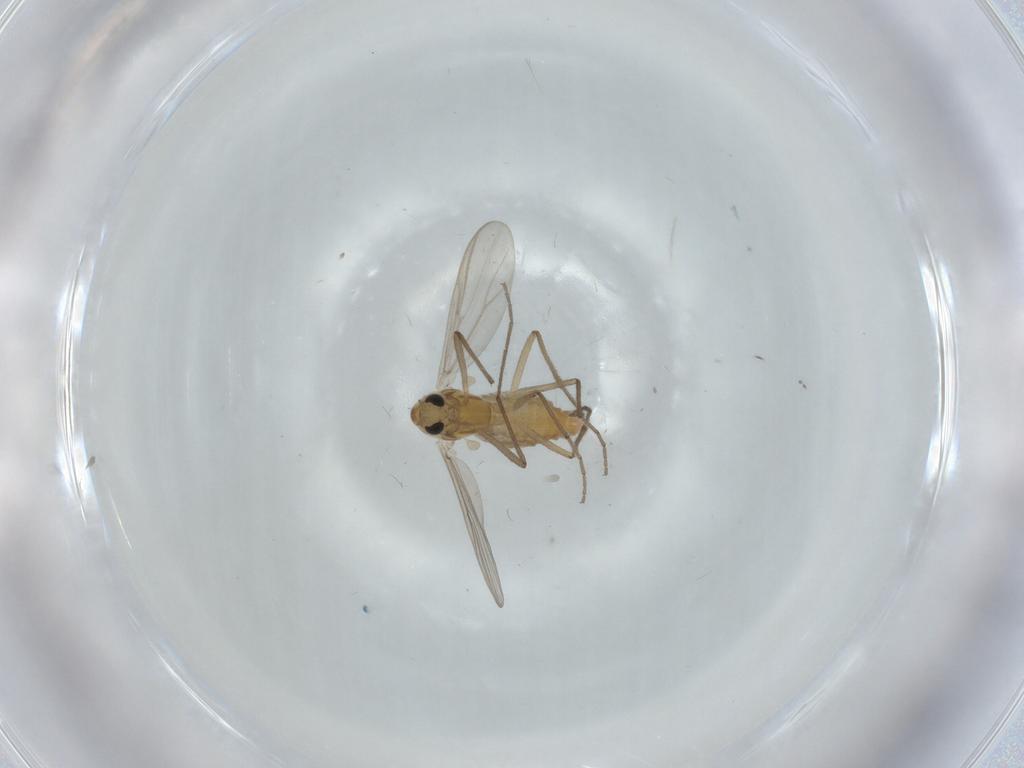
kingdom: Animalia
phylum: Arthropoda
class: Insecta
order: Diptera
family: Chironomidae
